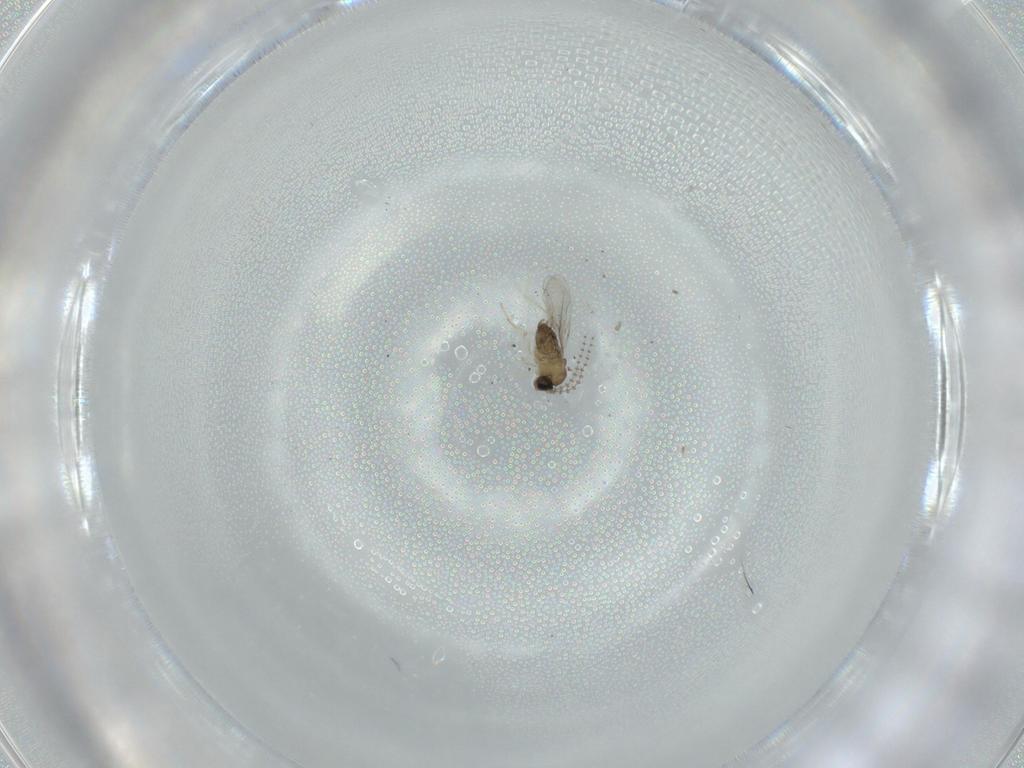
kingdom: Animalia
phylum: Arthropoda
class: Insecta
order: Diptera
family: Cecidomyiidae
